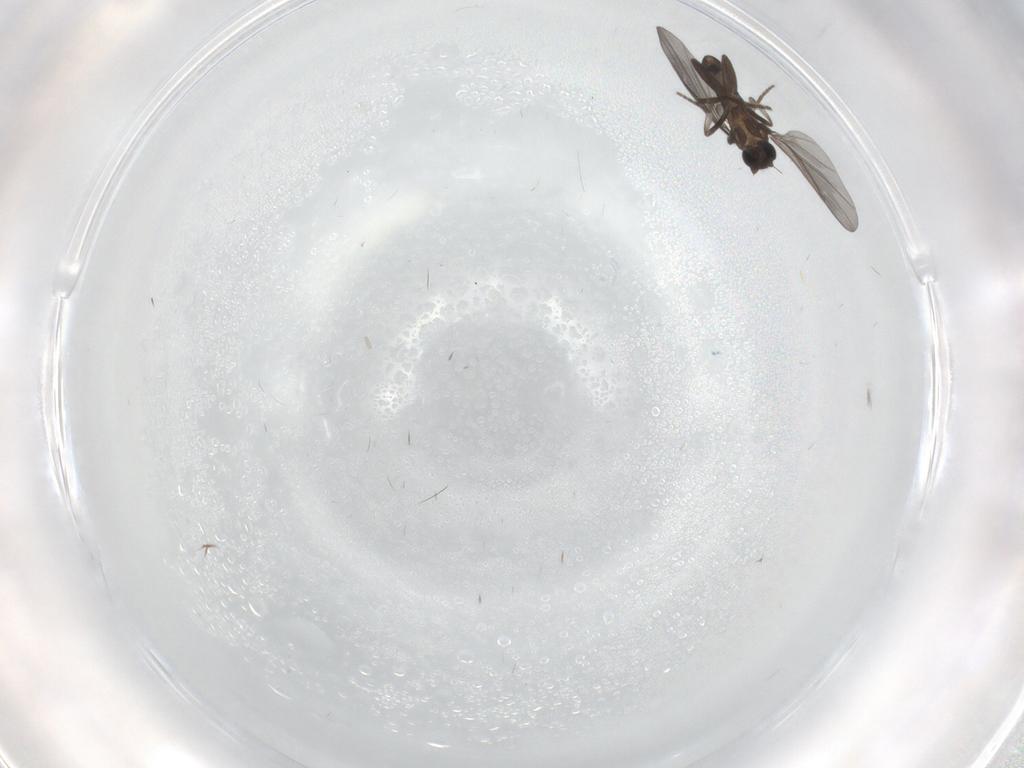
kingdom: Animalia
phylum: Arthropoda
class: Insecta
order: Diptera
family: Phoridae
